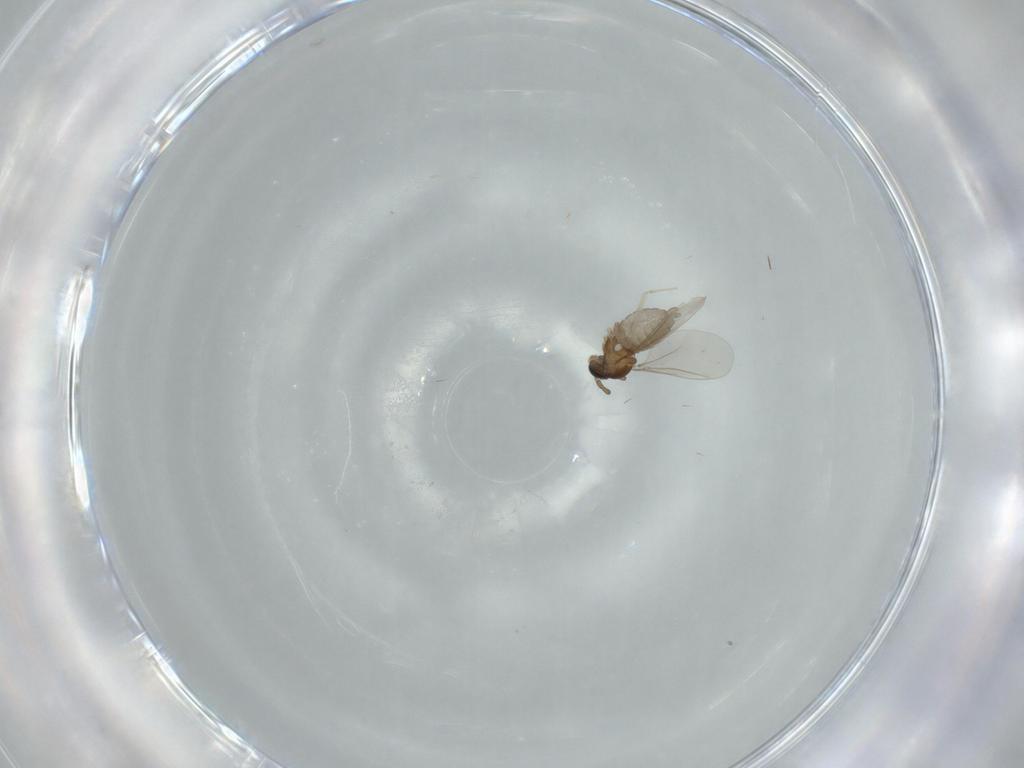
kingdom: Animalia
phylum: Arthropoda
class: Insecta
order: Diptera
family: Cecidomyiidae
